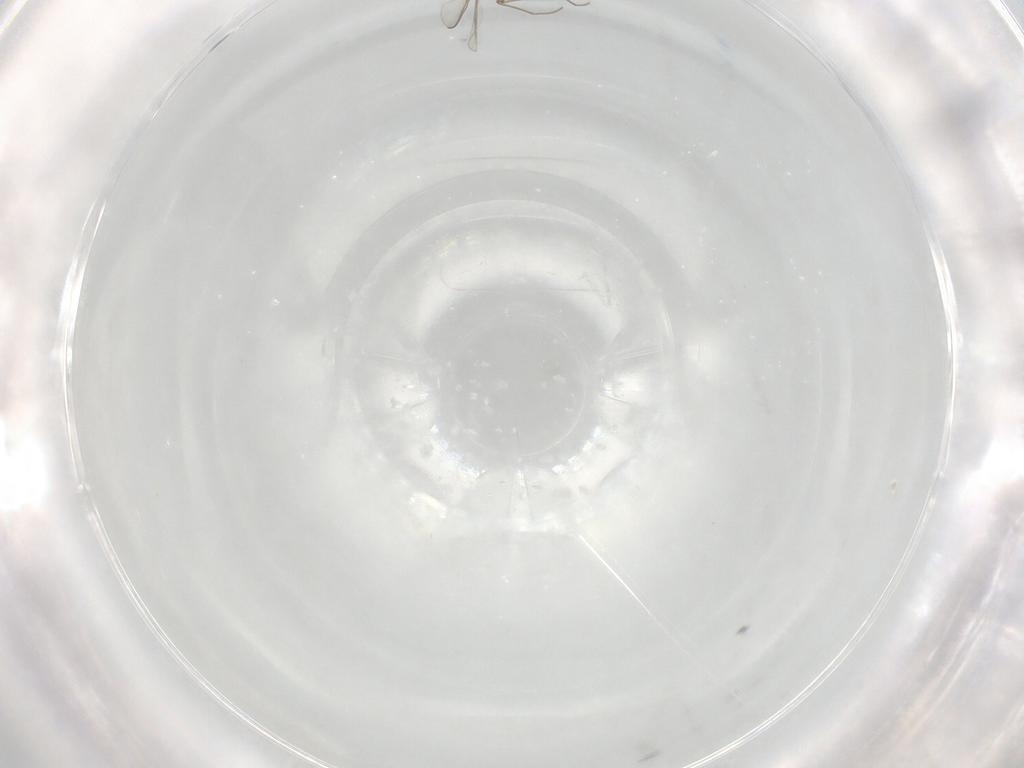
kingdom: Animalia
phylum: Arthropoda
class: Insecta
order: Diptera
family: Chironomidae
